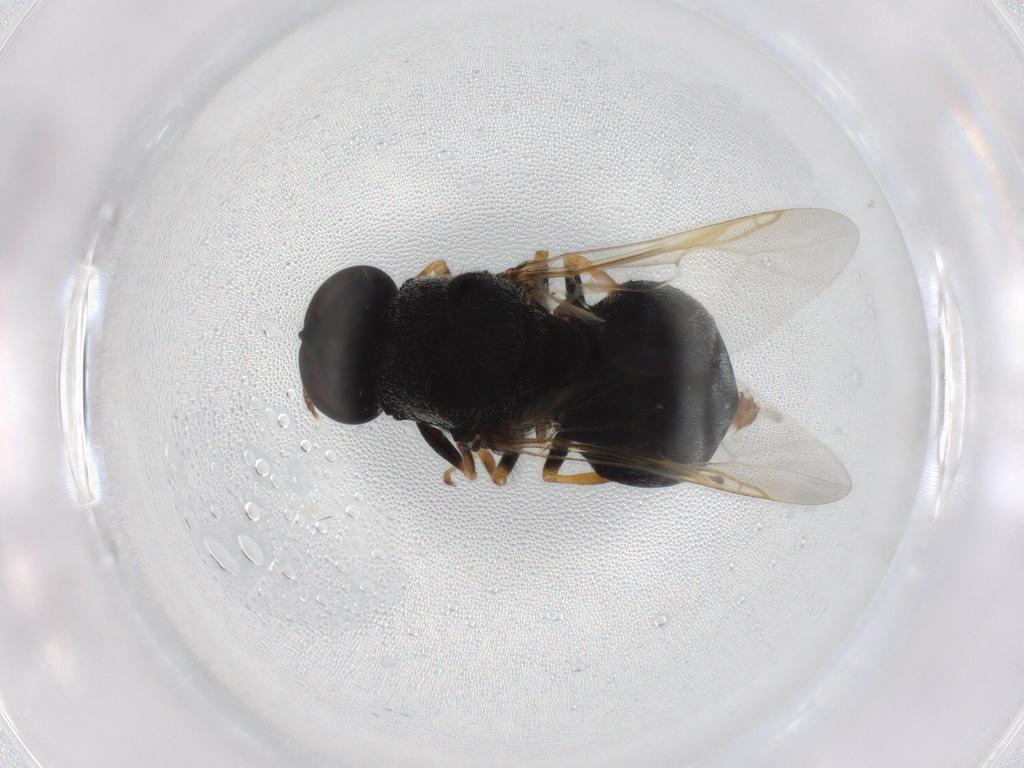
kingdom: Animalia
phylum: Arthropoda
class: Insecta
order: Diptera
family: Stratiomyidae
